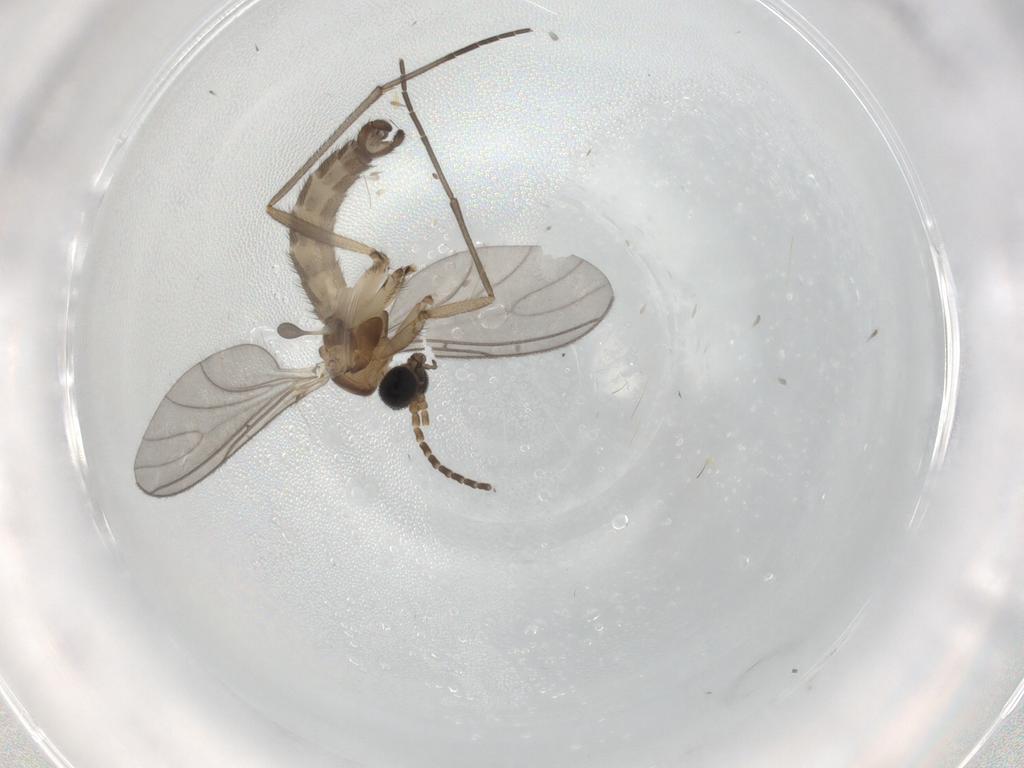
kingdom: Animalia
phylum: Arthropoda
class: Insecta
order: Diptera
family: Sciaridae
